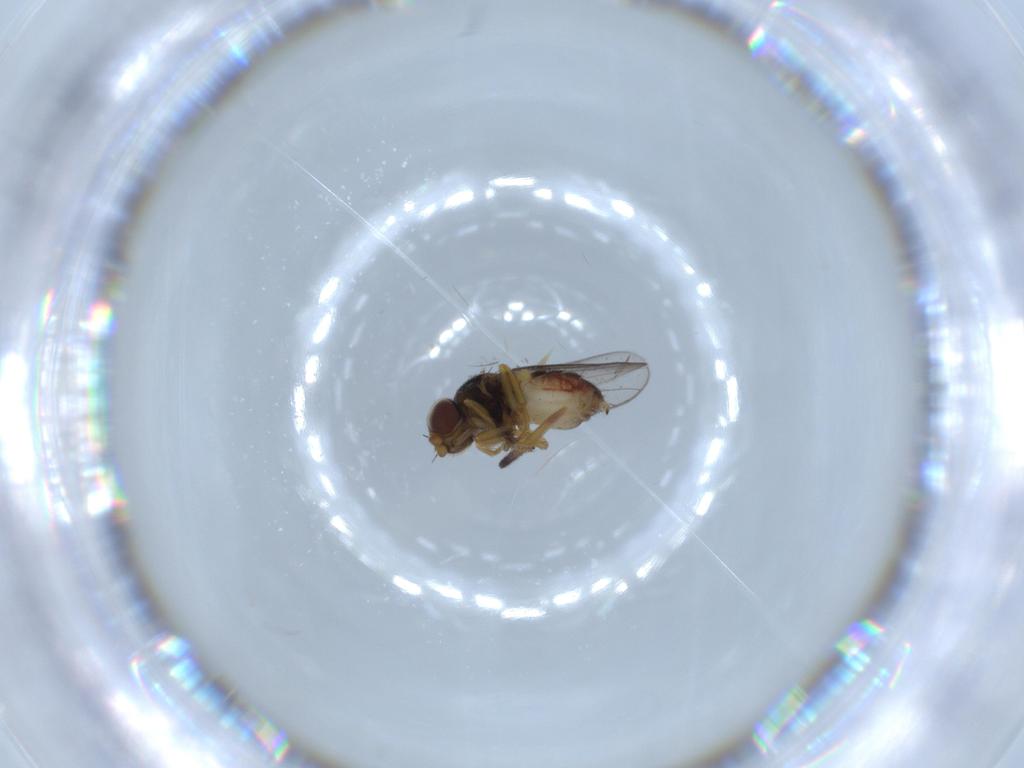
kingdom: Animalia
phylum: Arthropoda
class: Insecta
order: Diptera
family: Chloropidae
